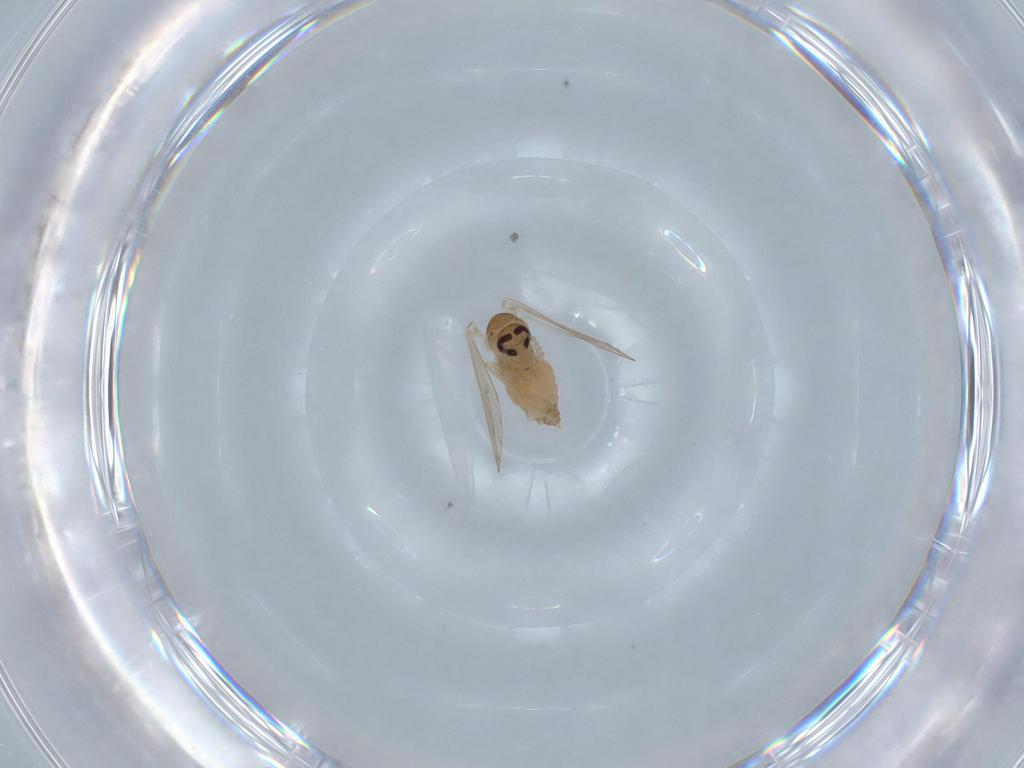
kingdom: Animalia
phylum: Arthropoda
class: Insecta
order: Diptera
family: Psychodidae
